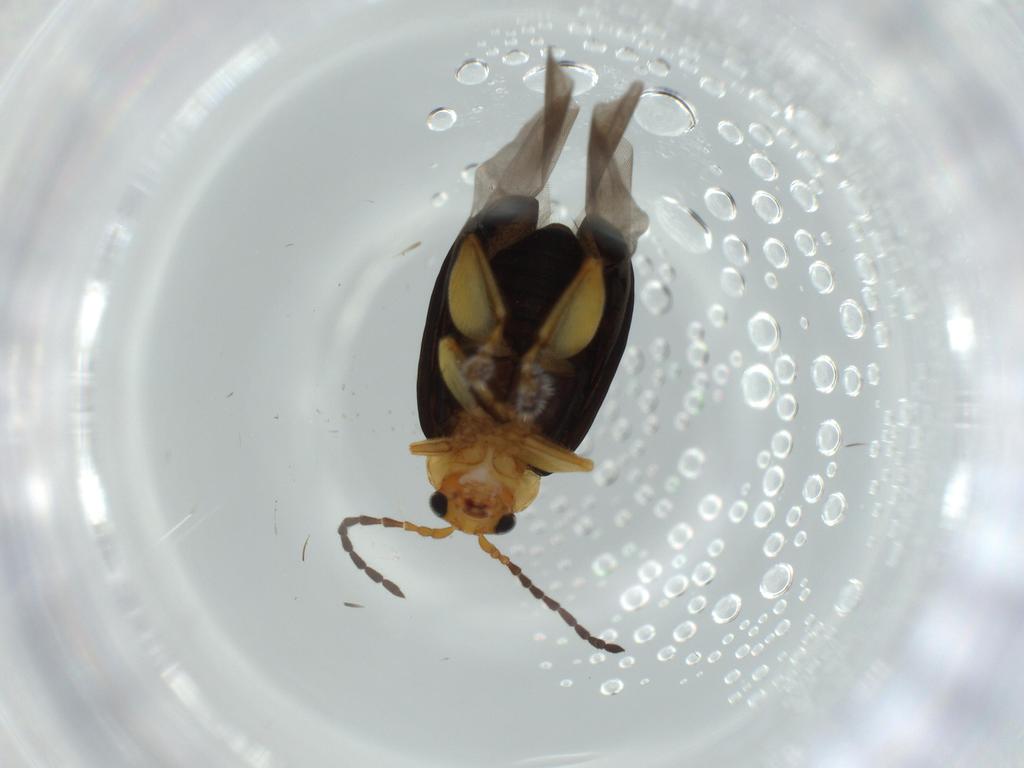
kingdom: Animalia
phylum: Arthropoda
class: Insecta
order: Coleoptera
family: Chrysomelidae
